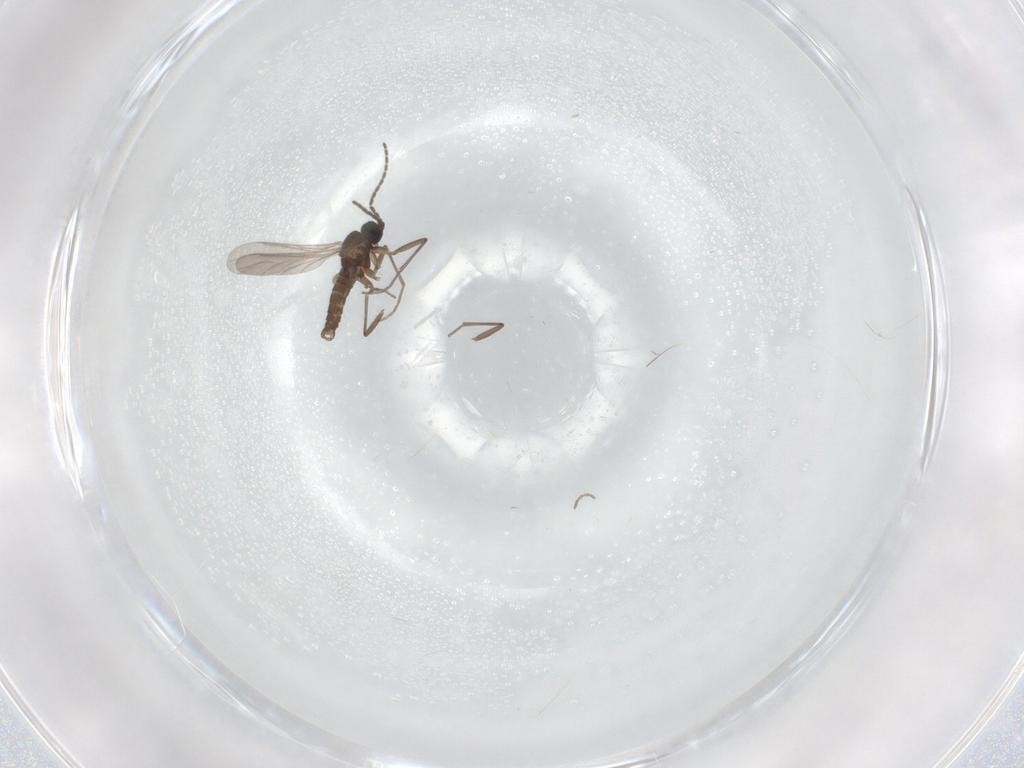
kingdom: Animalia
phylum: Arthropoda
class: Insecta
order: Diptera
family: Sciaridae
